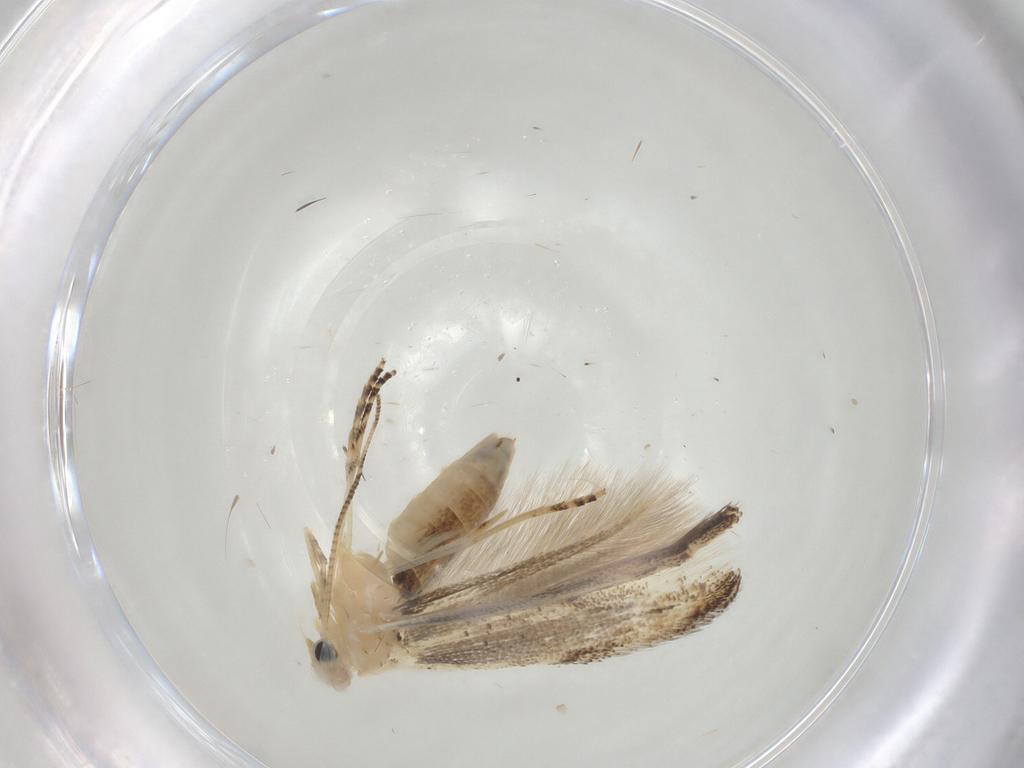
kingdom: Animalia
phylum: Arthropoda
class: Insecta
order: Lepidoptera
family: Bucculatricidae
